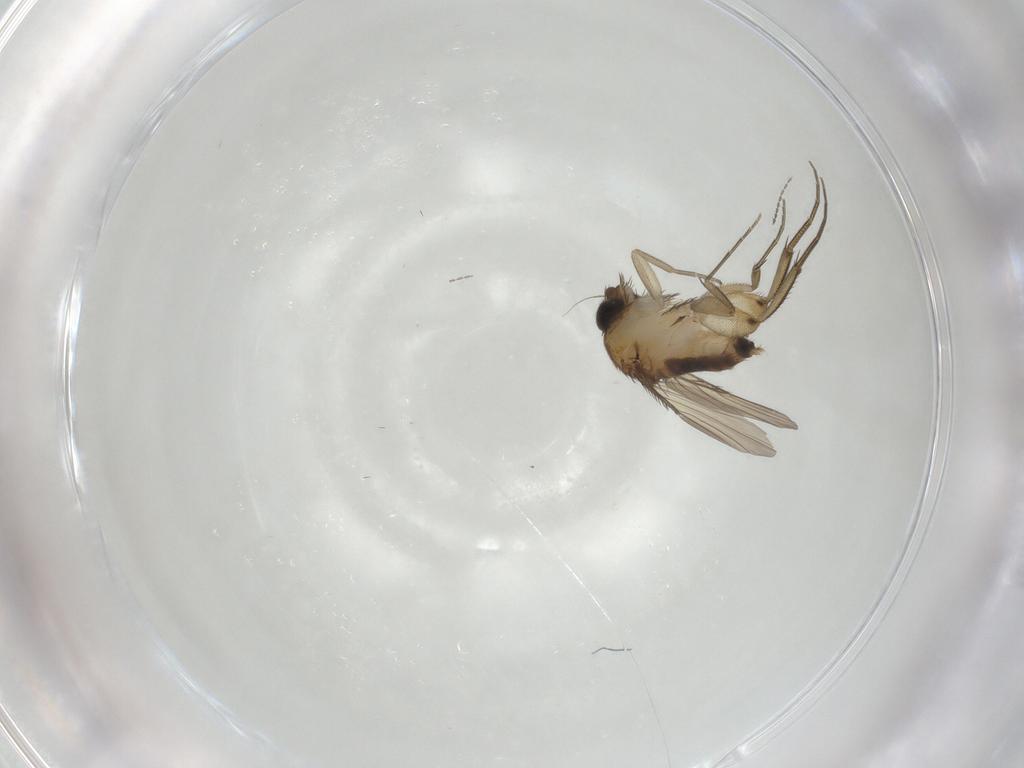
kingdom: Animalia
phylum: Arthropoda
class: Insecta
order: Diptera
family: Phoridae
